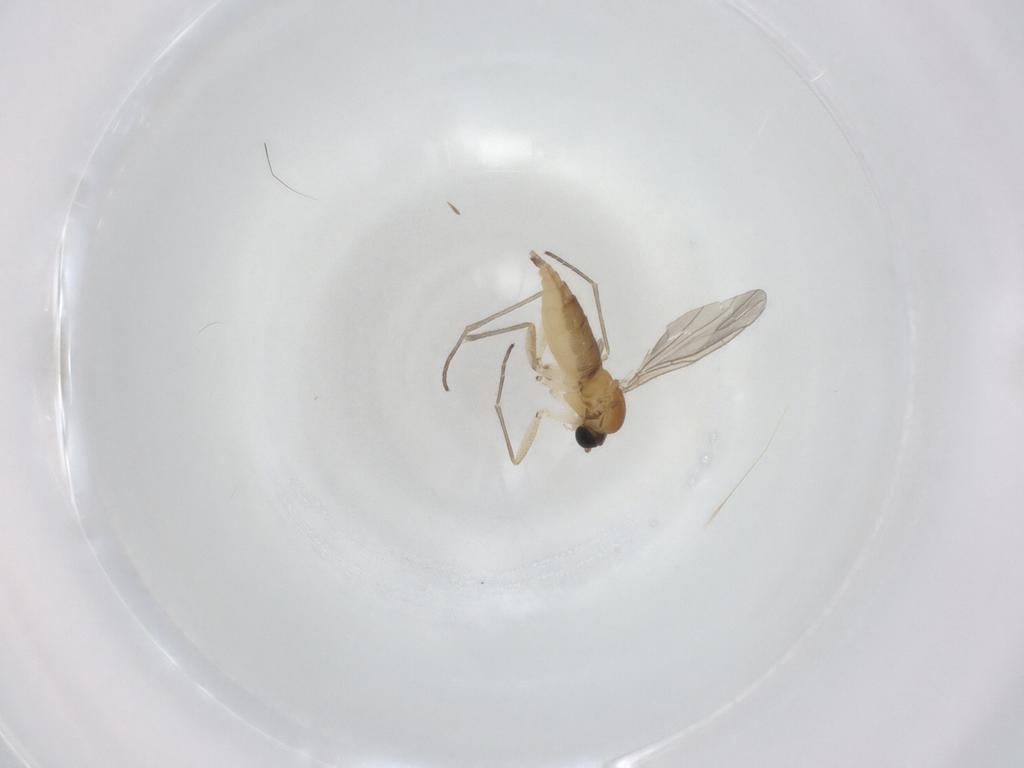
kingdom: Animalia
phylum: Arthropoda
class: Insecta
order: Diptera
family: Sciaridae
